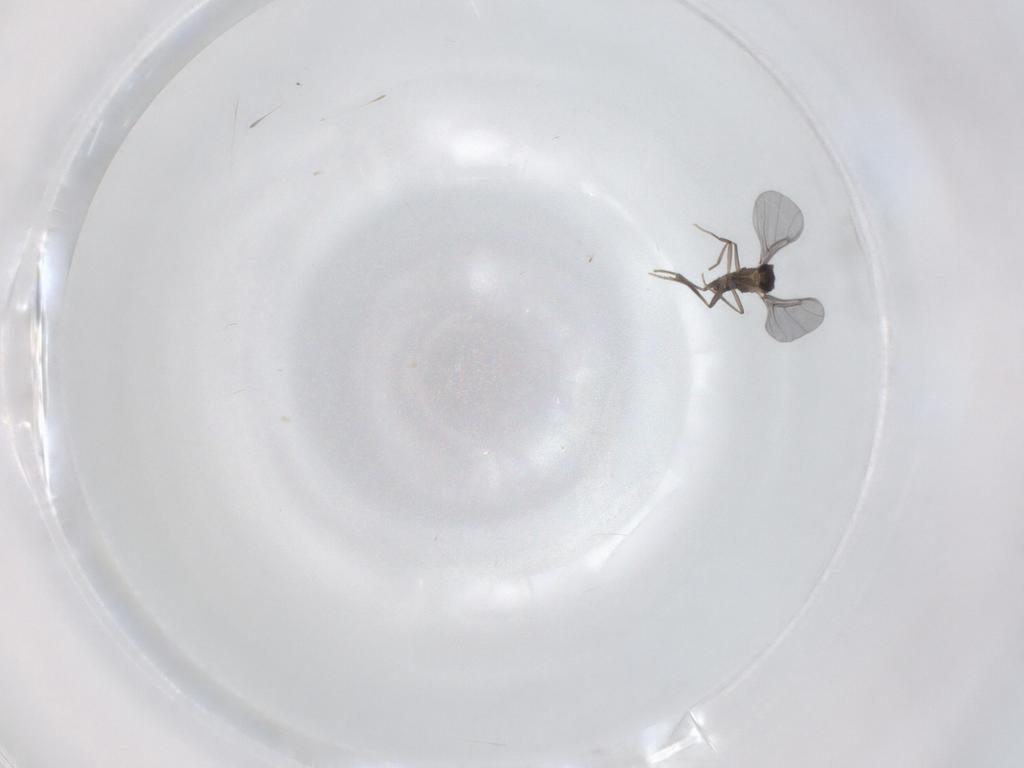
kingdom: Animalia
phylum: Arthropoda
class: Insecta
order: Diptera
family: Phoridae
